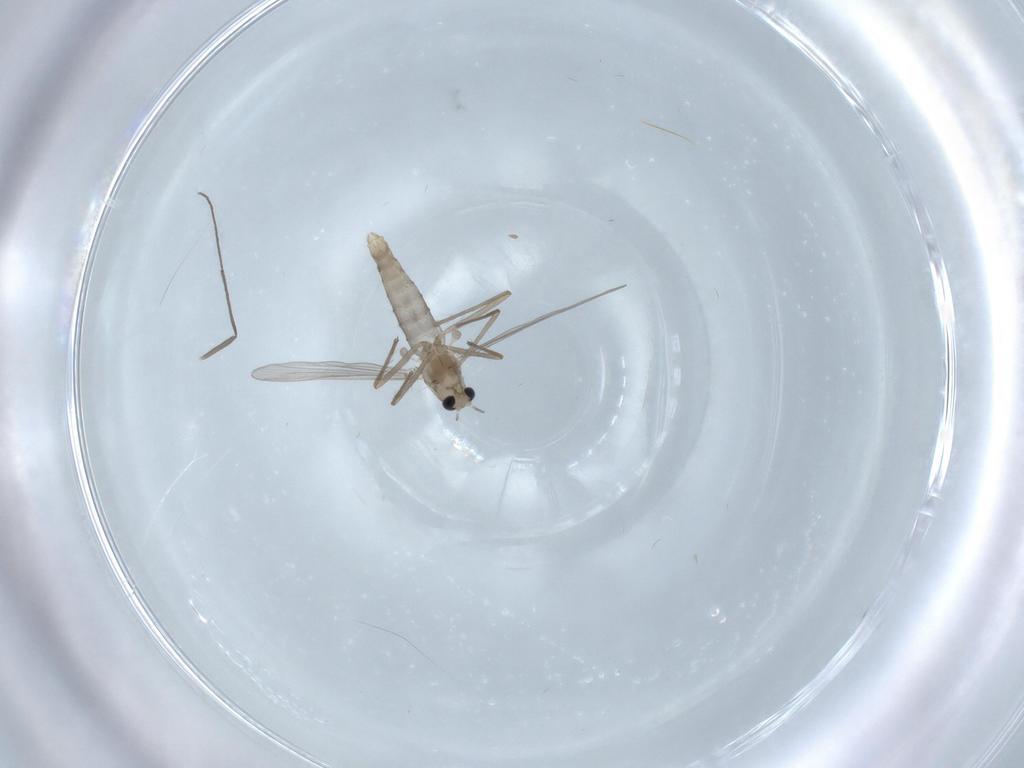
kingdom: Animalia
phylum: Arthropoda
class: Insecta
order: Diptera
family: Chironomidae
